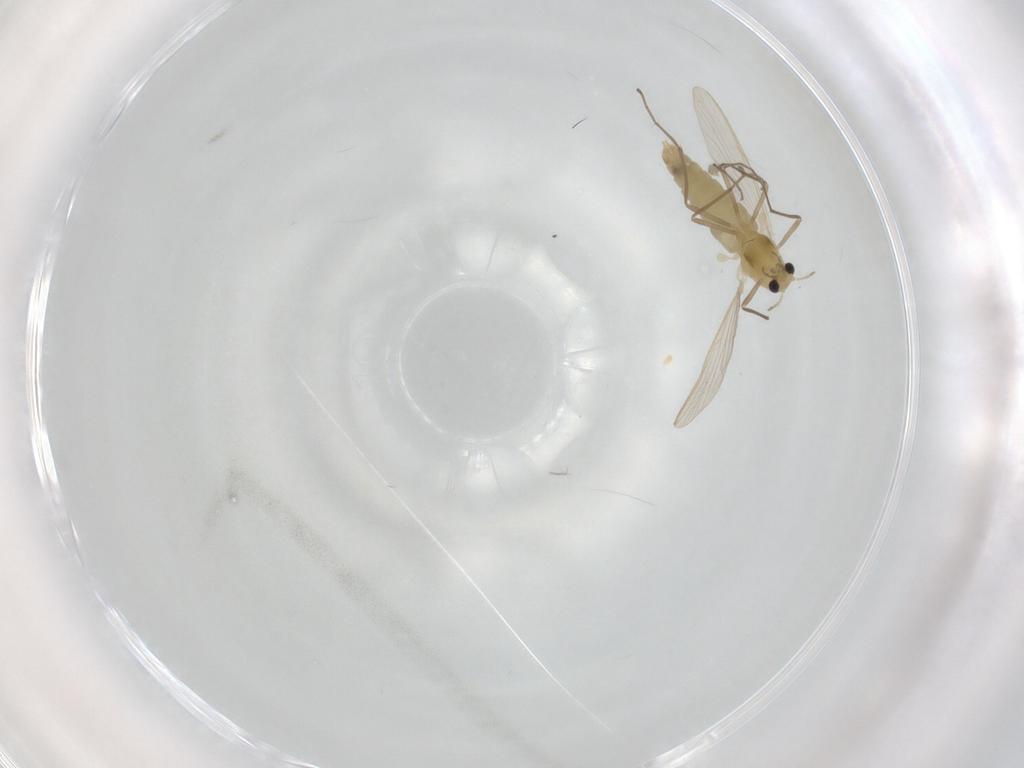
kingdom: Animalia
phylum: Arthropoda
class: Insecta
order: Diptera
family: Chironomidae
